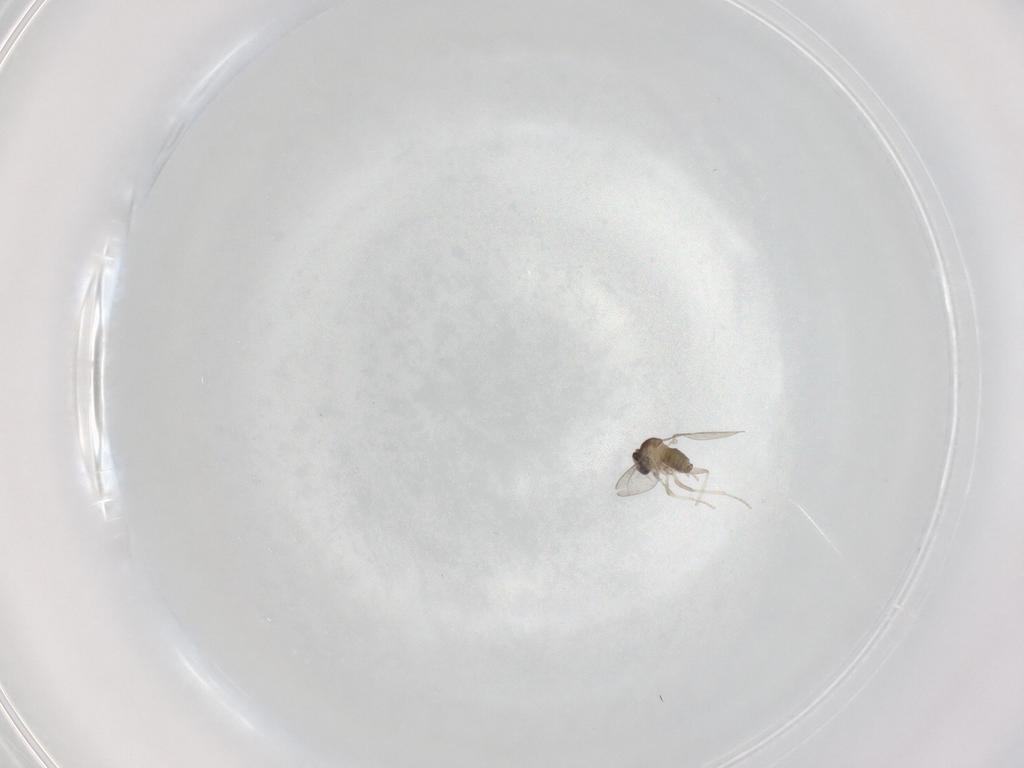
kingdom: Animalia
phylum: Arthropoda
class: Insecta
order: Diptera
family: Cecidomyiidae
